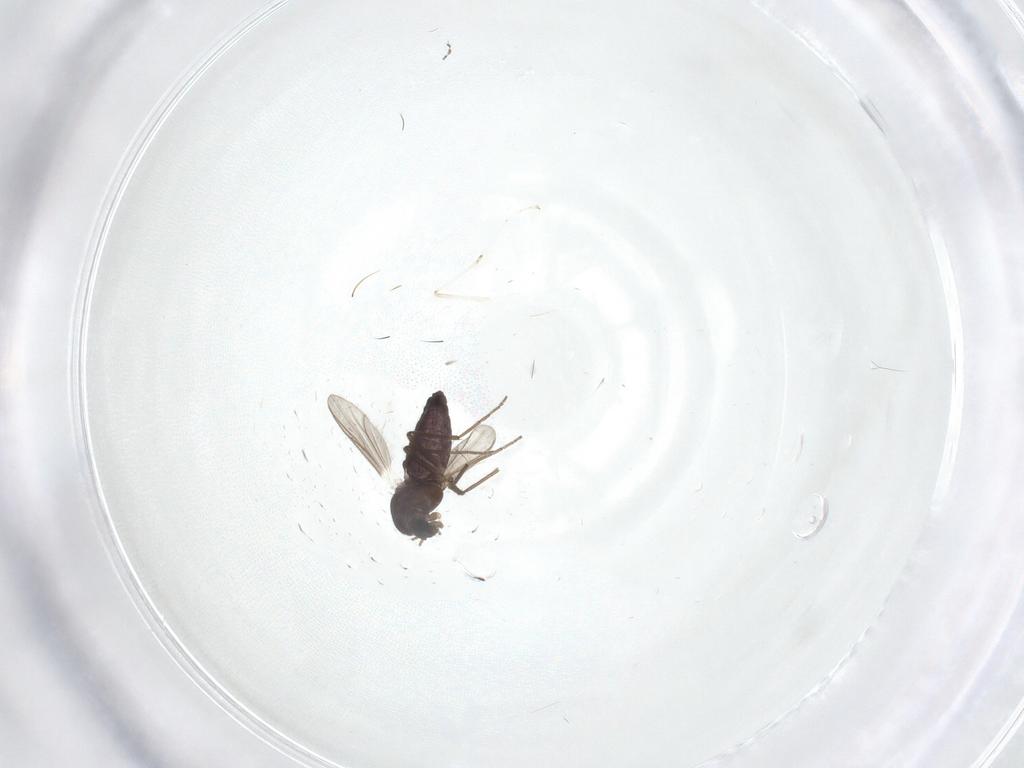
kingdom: Animalia
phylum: Arthropoda
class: Insecta
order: Diptera
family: Chironomidae
